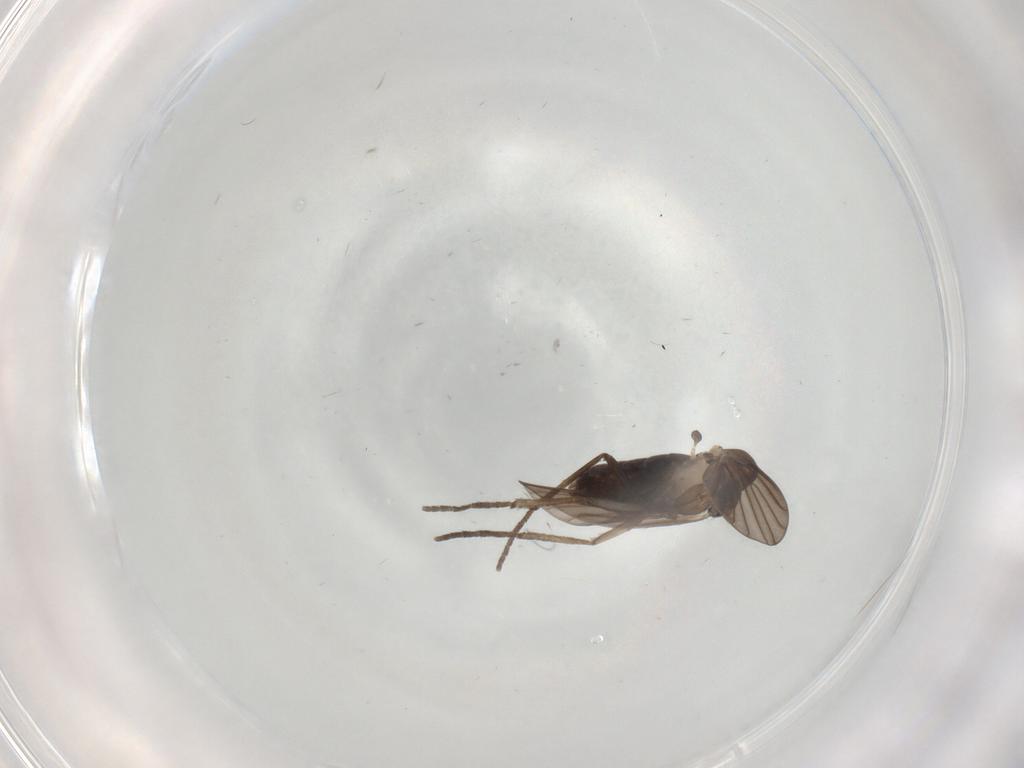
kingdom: Animalia
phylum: Arthropoda
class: Insecta
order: Diptera
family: Psychodidae
